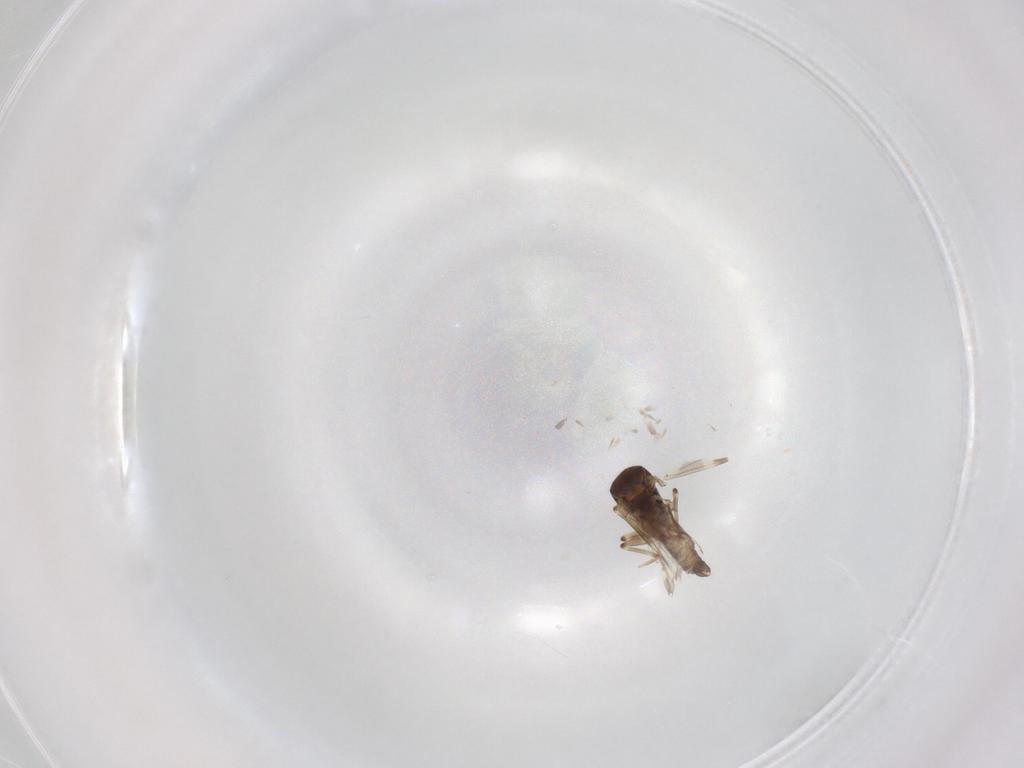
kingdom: Animalia
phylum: Arthropoda
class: Insecta
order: Diptera
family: Ceratopogonidae
